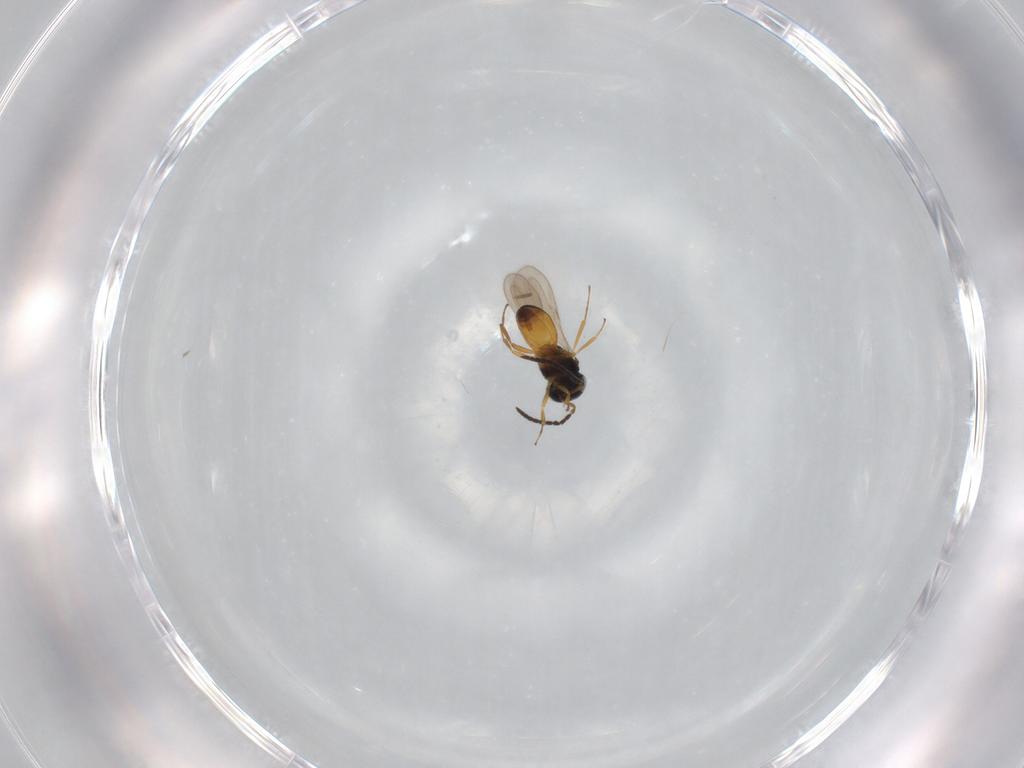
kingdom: Animalia
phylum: Arthropoda
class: Insecta
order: Hymenoptera
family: Scelionidae
